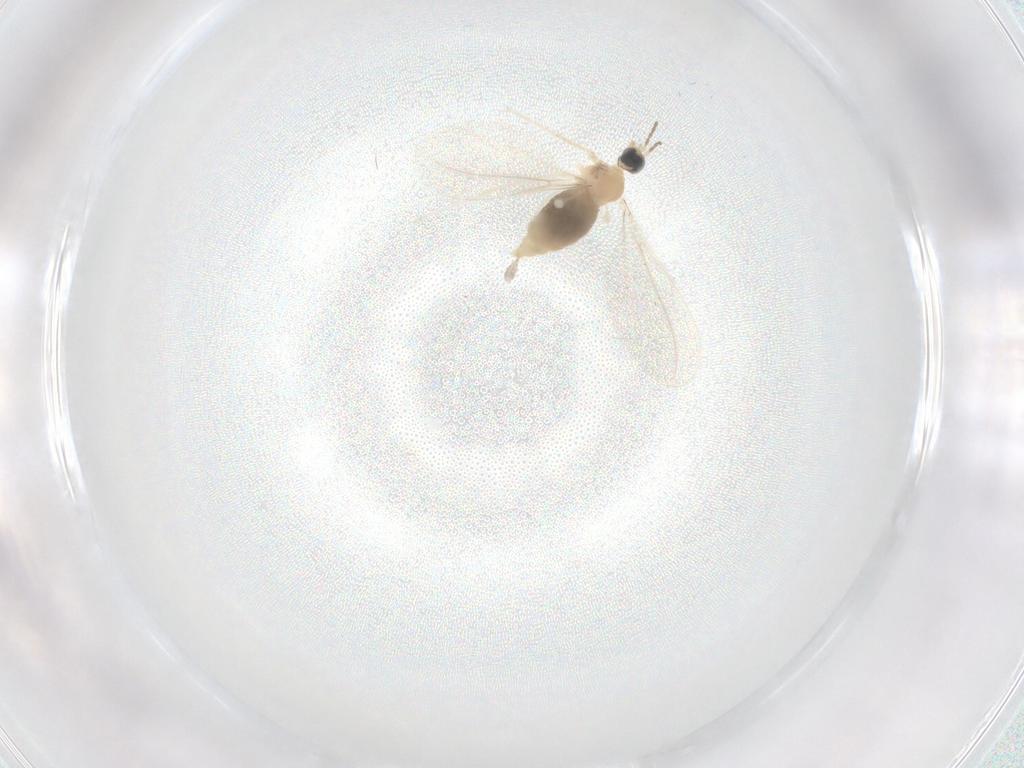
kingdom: Animalia
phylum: Arthropoda
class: Insecta
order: Diptera
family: Cecidomyiidae
